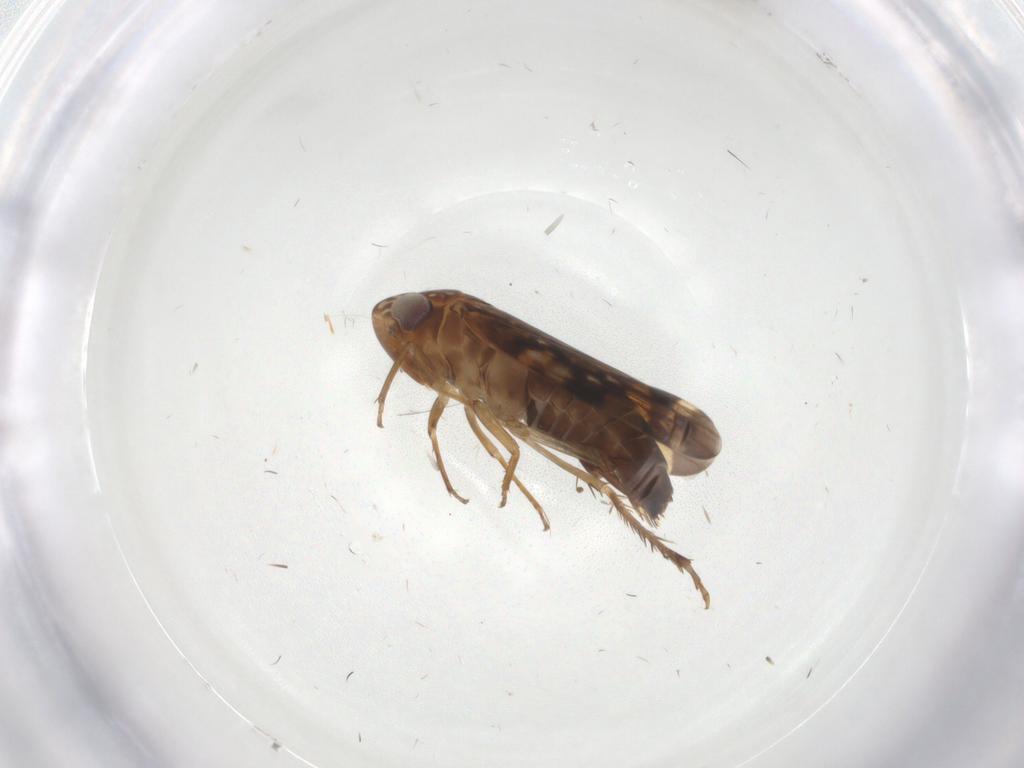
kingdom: Animalia
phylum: Arthropoda
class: Insecta
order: Hemiptera
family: Cicadellidae
